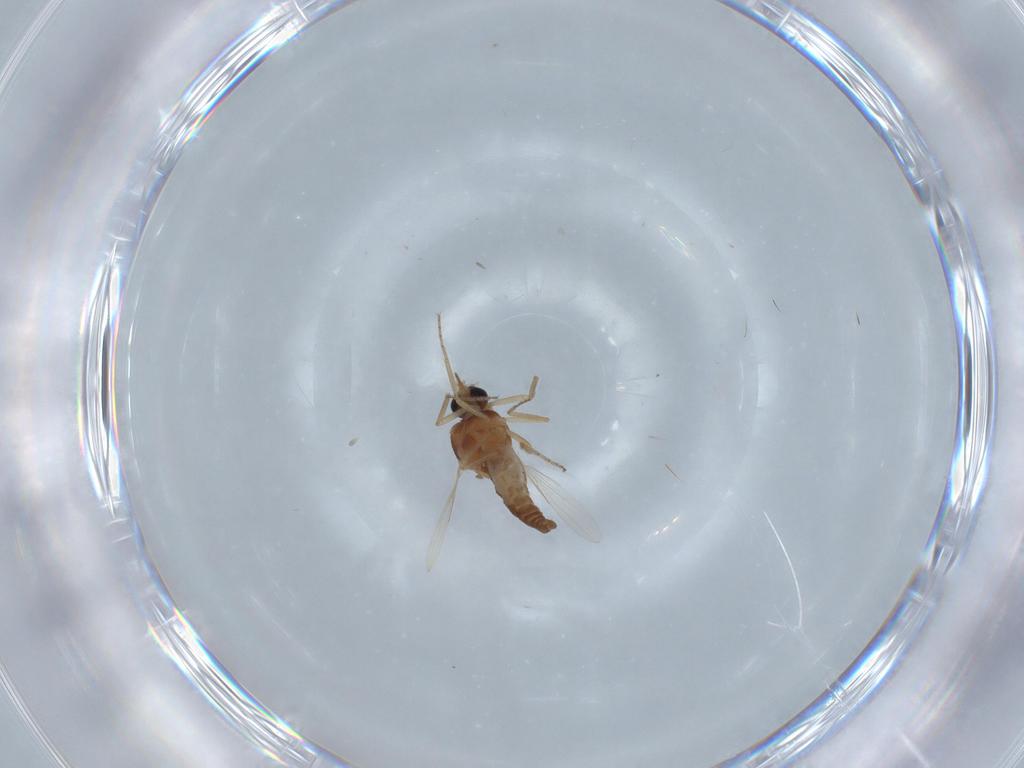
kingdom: Animalia
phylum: Arthropoda
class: Insecta
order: Diptera
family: Ceratopogonidae
